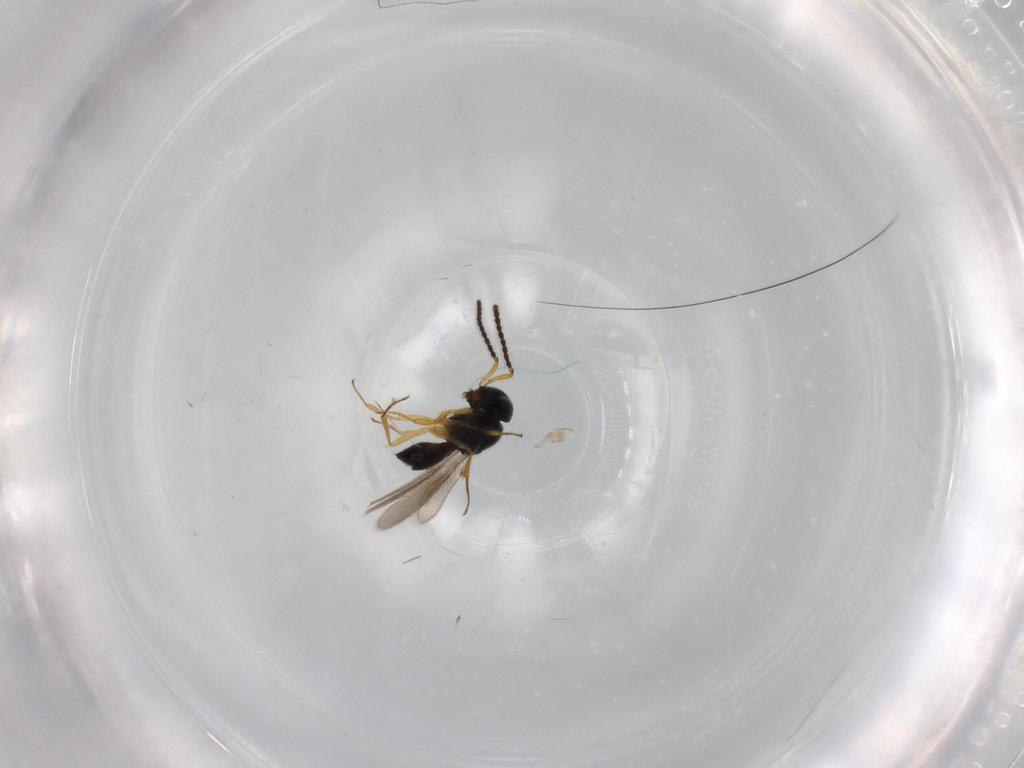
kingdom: Animalia
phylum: Arthropoda
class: Insecta
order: Hymenoptera
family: Scelionidae
